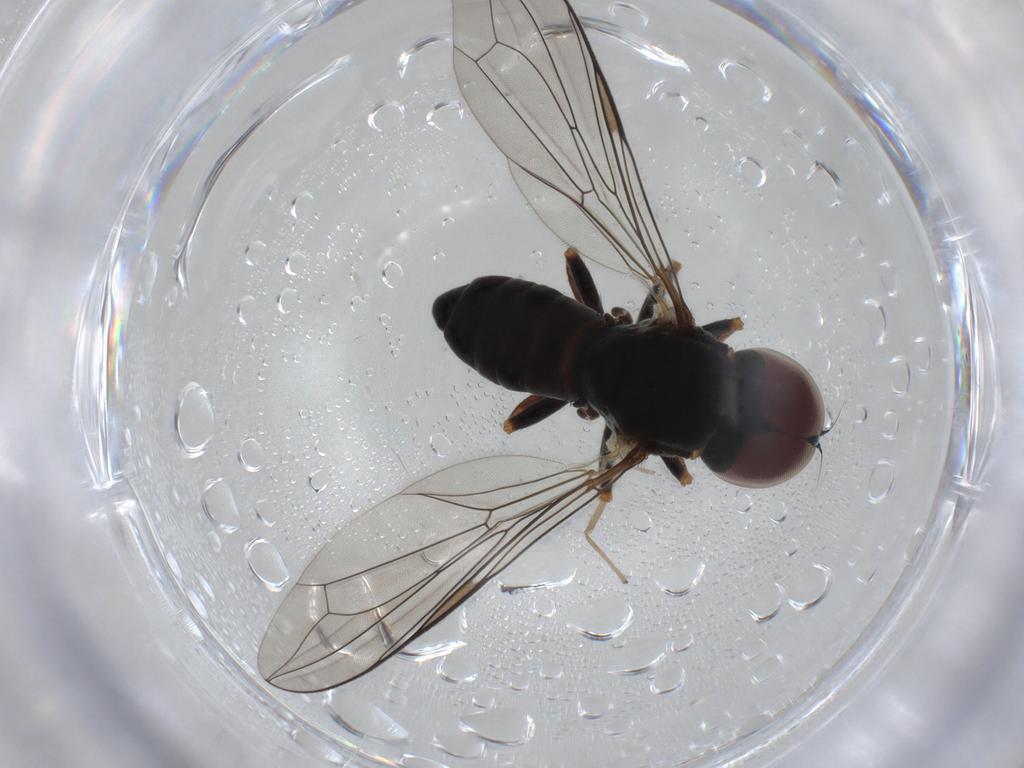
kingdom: Animalia
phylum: Arthropoda
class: Insecta
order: Diptera
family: Pipunculidae
